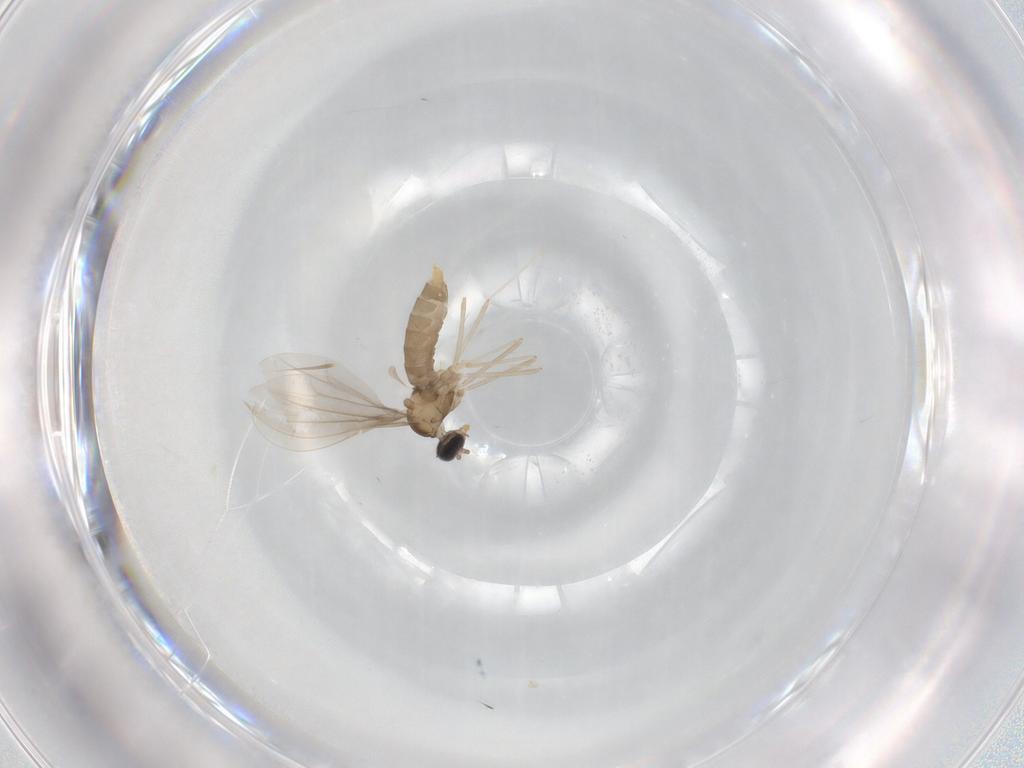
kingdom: Animalia
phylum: Arthropoda
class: Insecta
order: Diptera
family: Cecidomyiidae
